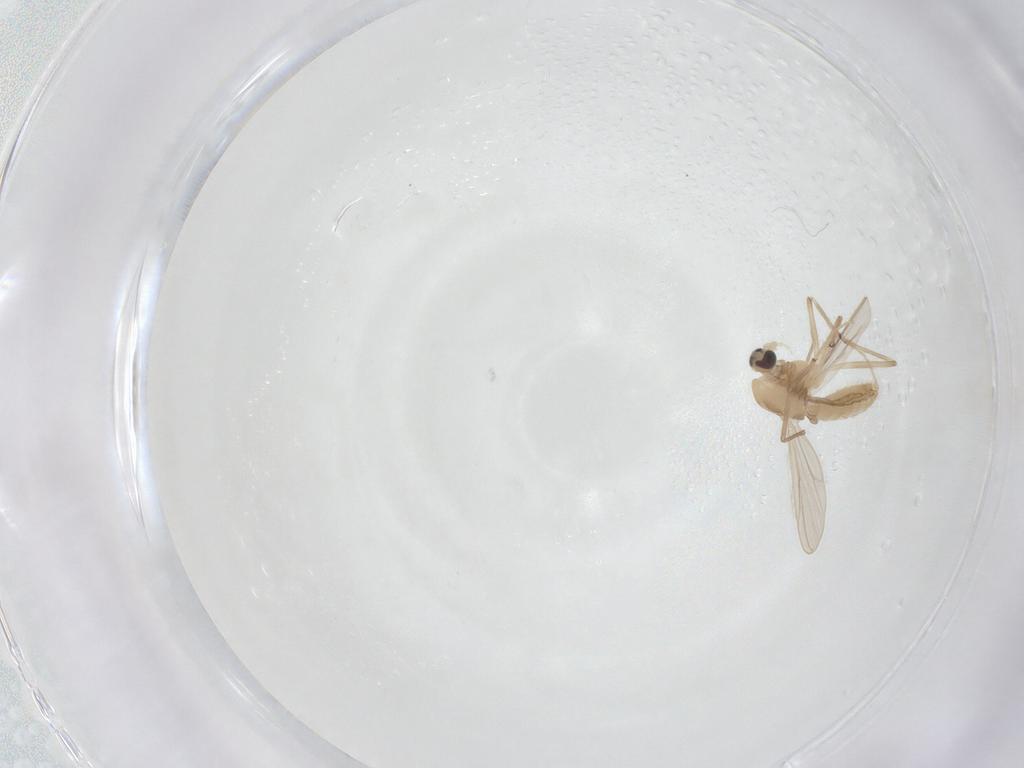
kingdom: Animalia
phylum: Arthropoda
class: Insecta
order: Diptera
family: Chironomidae
